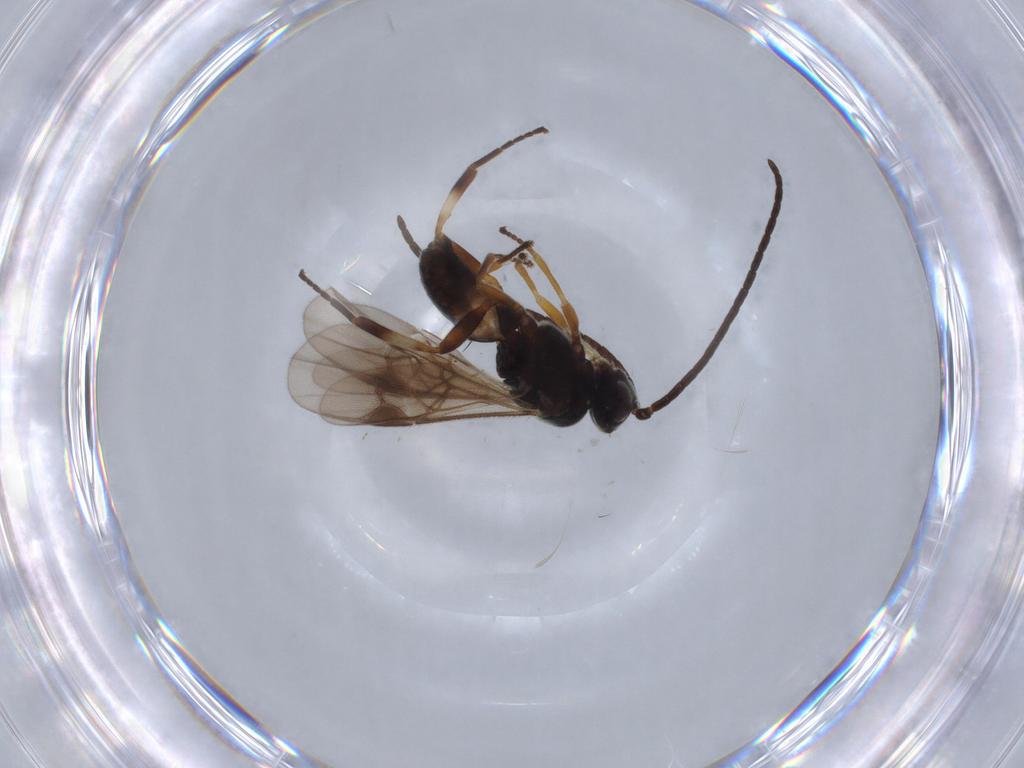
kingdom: Animalia
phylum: Arthropoda
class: Insecta
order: Hymenoptera
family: Braconidae
